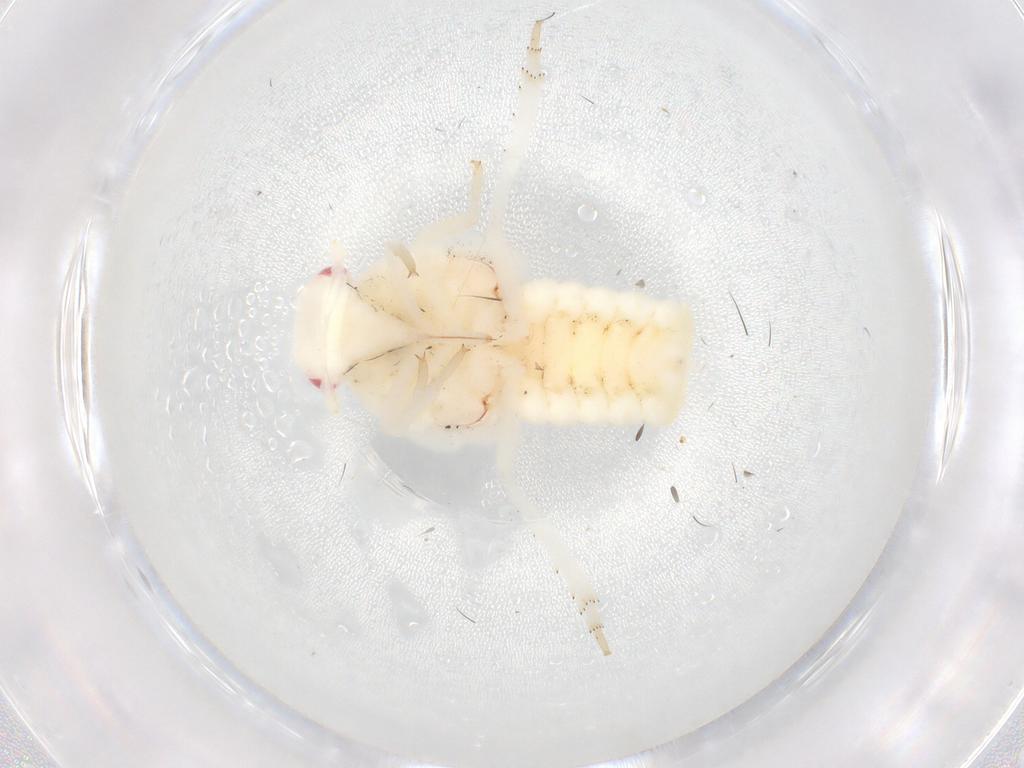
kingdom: Animalia
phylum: Arthropoda
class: Insecta
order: Hemiptera
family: Flatidae
